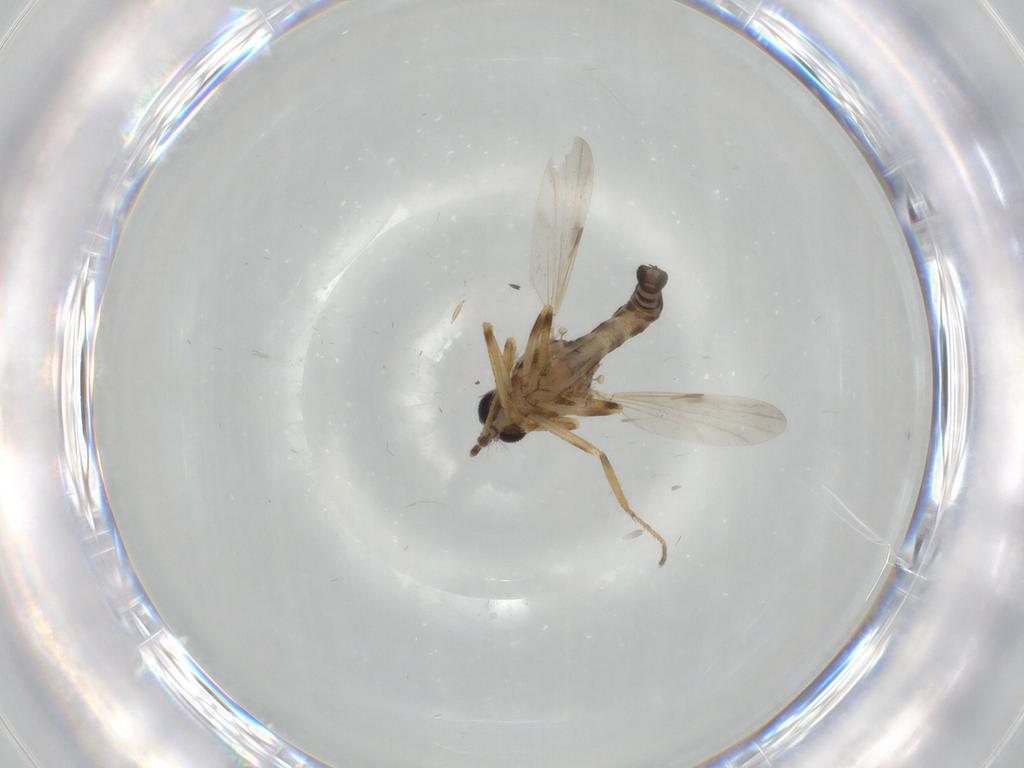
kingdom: Animalia
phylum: Arthropoda
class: Insecta
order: Diptera
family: Ceratopogonidae
